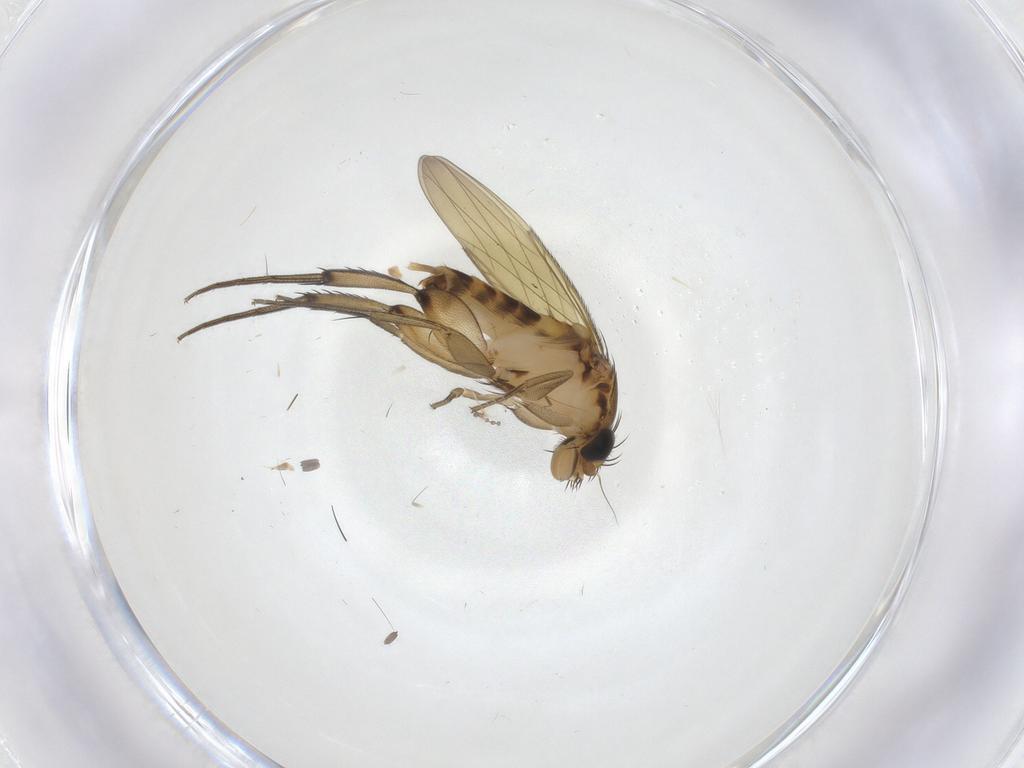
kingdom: Animalia
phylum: Arthropoda
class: Insecta
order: Diptera
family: Phoridae
